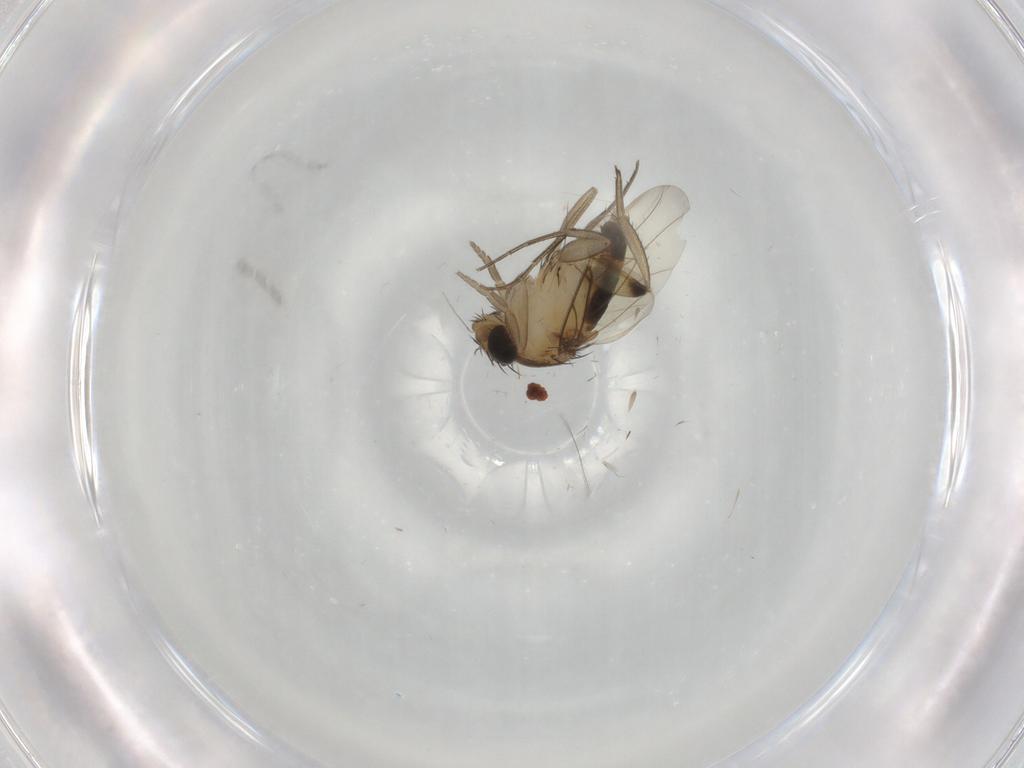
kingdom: Animalia
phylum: Arthropoda
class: Insecta
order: Diptera
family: Phoridae
